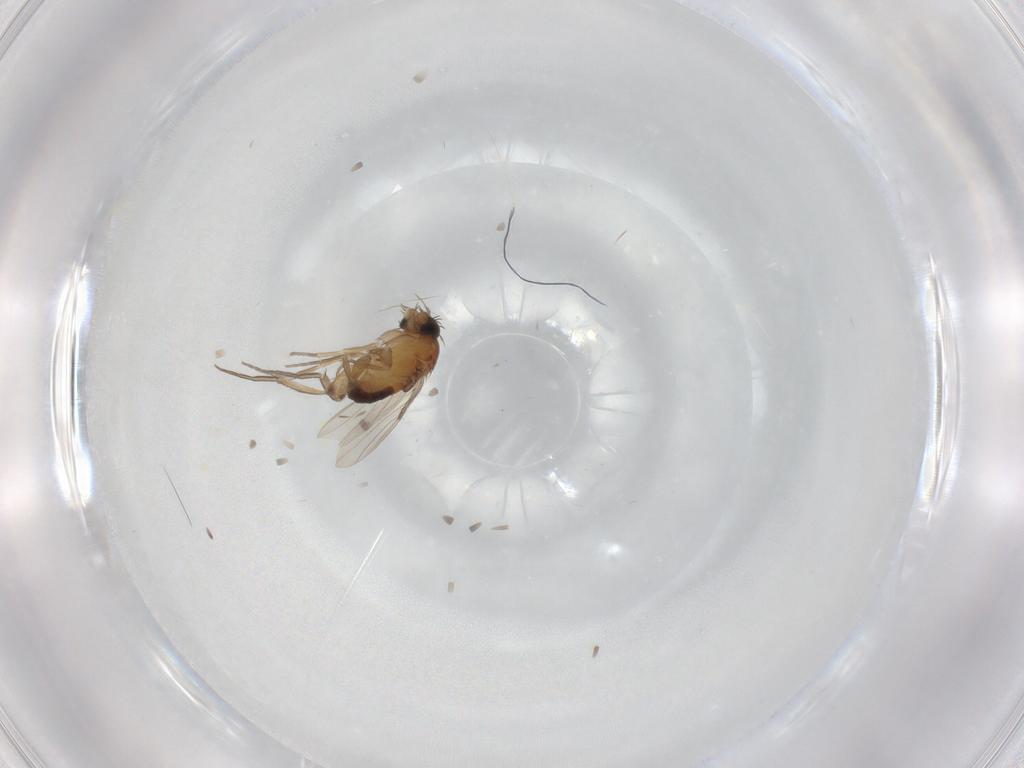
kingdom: Animalia
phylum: Arthropoda
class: Insecta
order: Diptera
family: Phoridae
